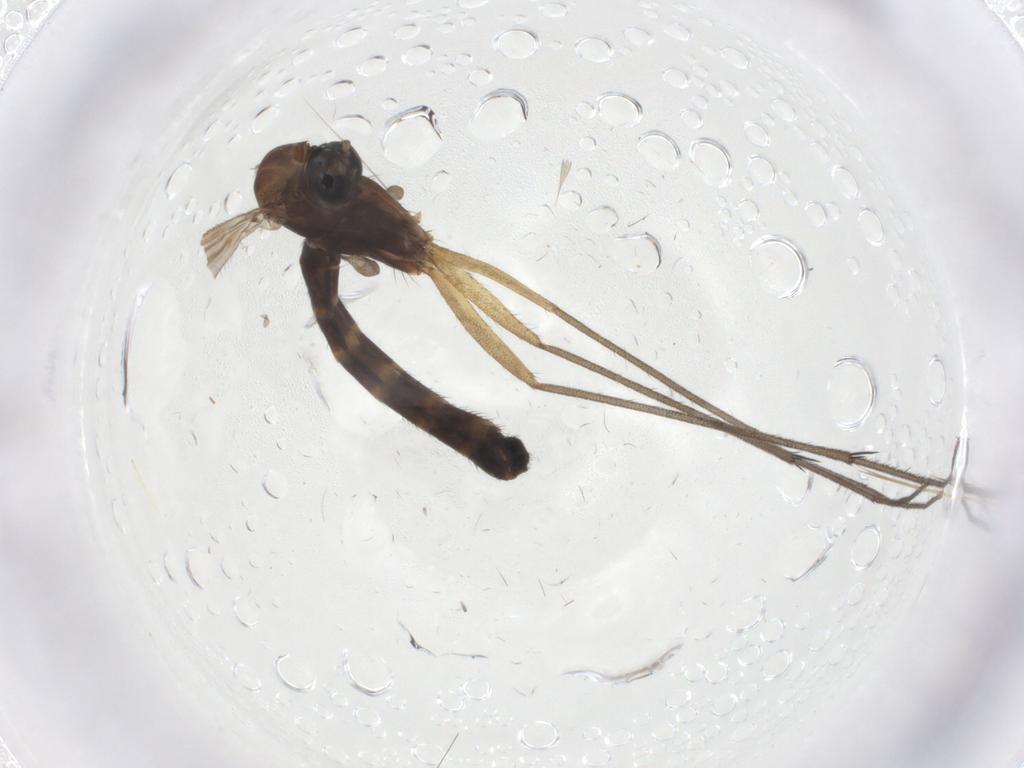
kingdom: Animalia
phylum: Arthropoda
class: Insecta
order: Diptera
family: Ditomyiidae
